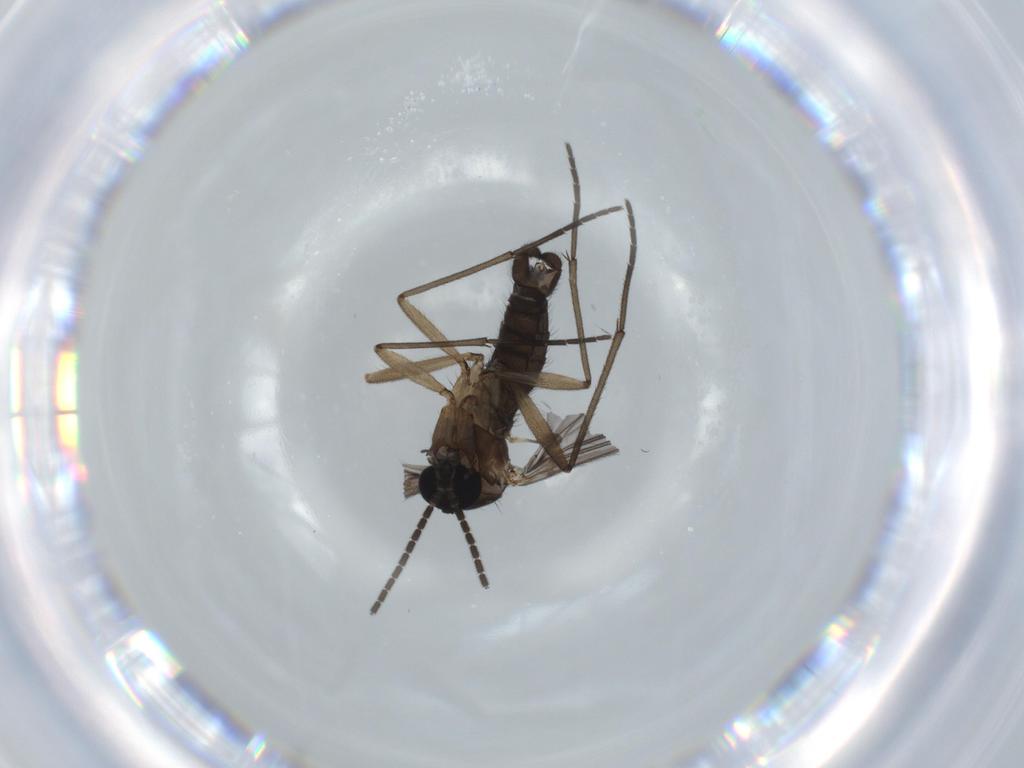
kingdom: Animalia
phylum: Arthropoda
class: Insecta
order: Diptera
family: Sciaridae
